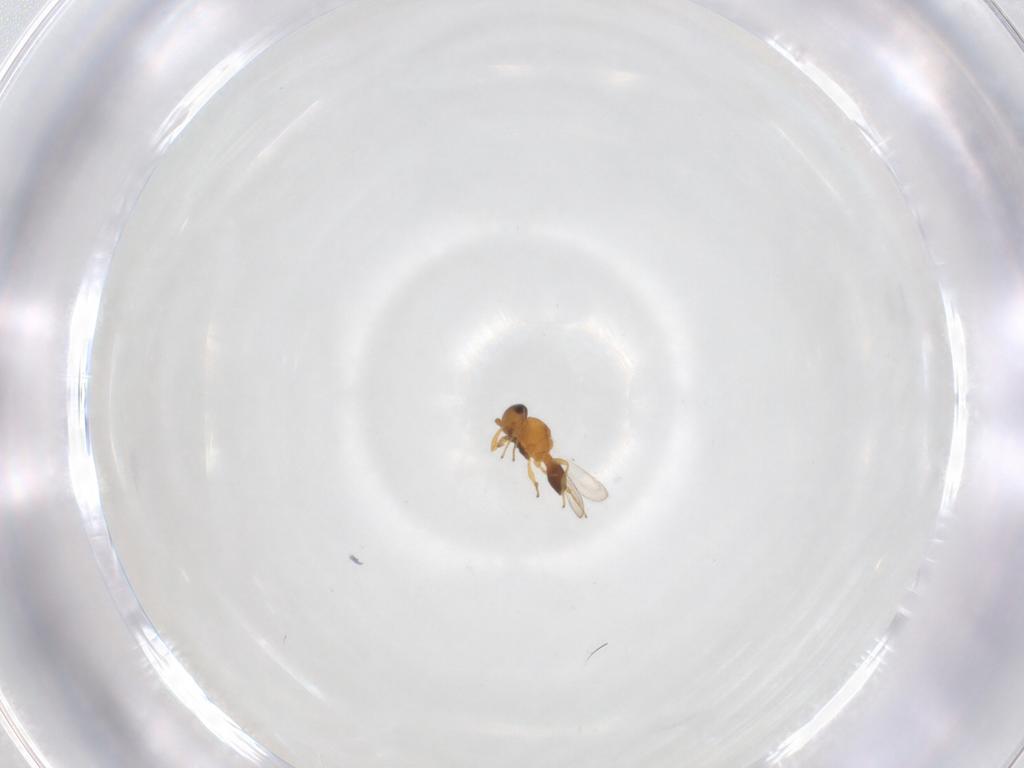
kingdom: Animalia
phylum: Arthropoda
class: Insecta
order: Hymenoptera
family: Platygastridae
